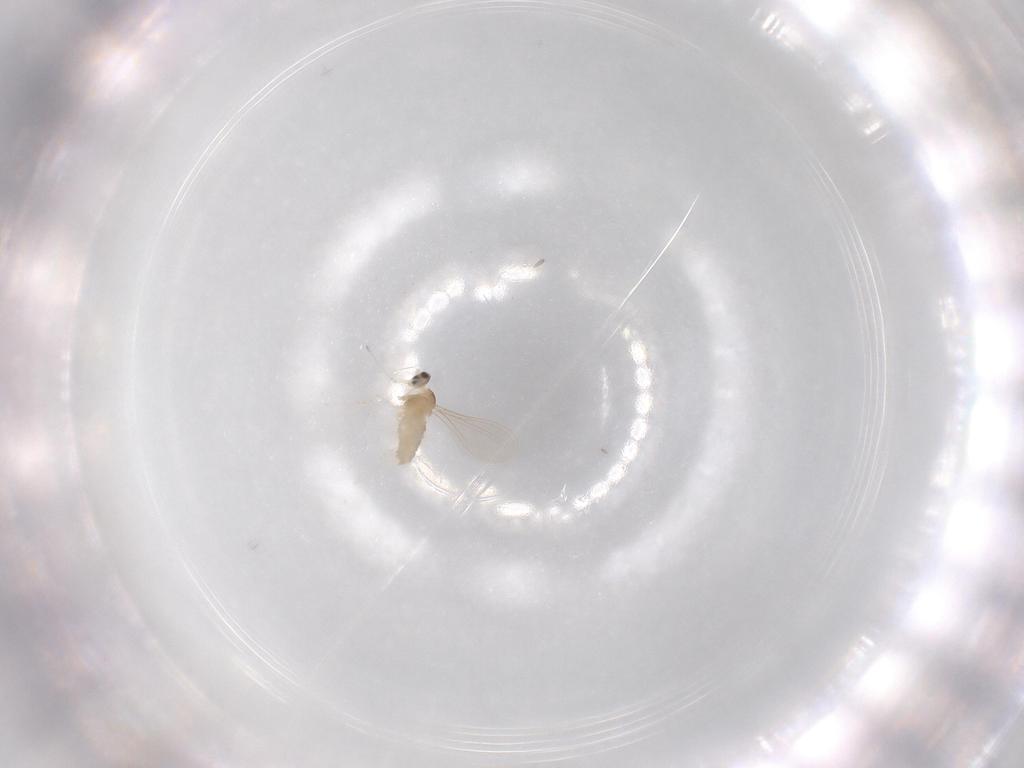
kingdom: Animalia
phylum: Arthropoda
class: Insecta
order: Diptera
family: Cecidomyiidae
